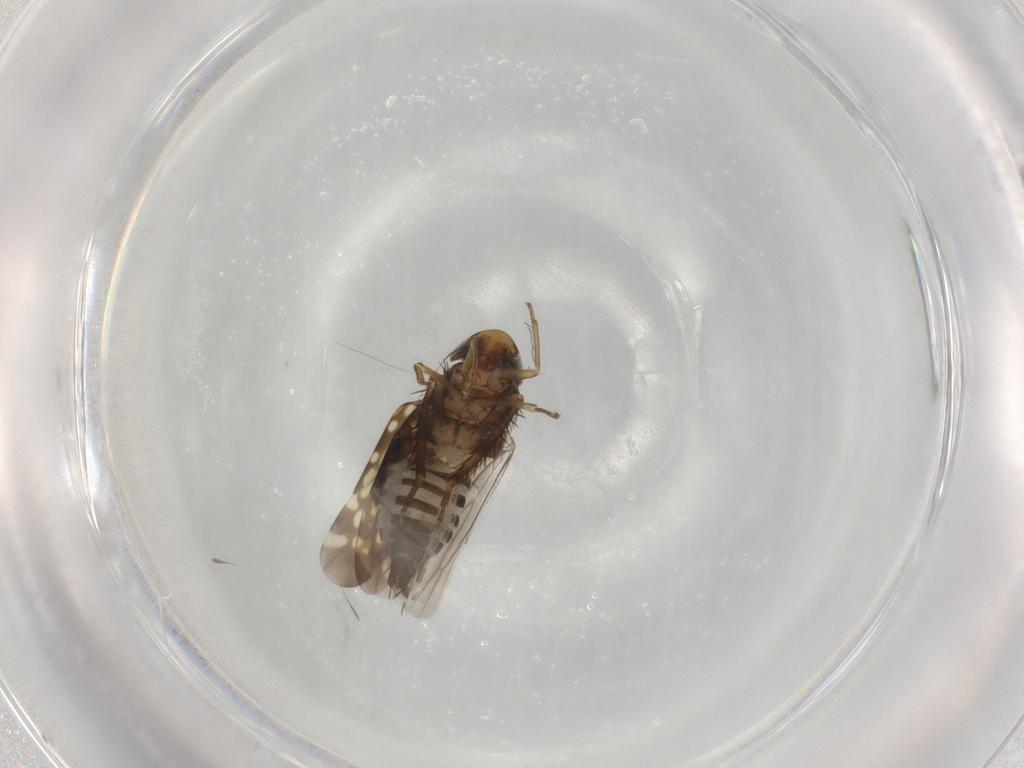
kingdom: Animalia
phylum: Arthropoda
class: Insecta
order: Hemiptera
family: Cicadellidae
